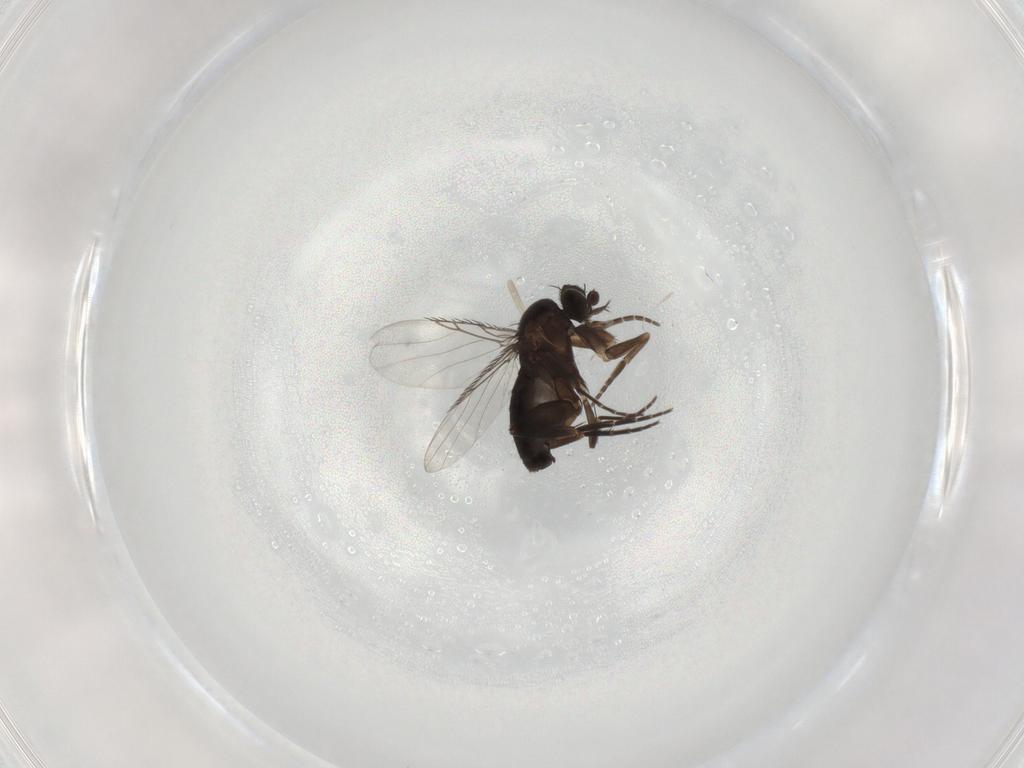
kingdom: Animalia
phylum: Arthropoda
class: Insecta
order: Diptera
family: Phoridae
